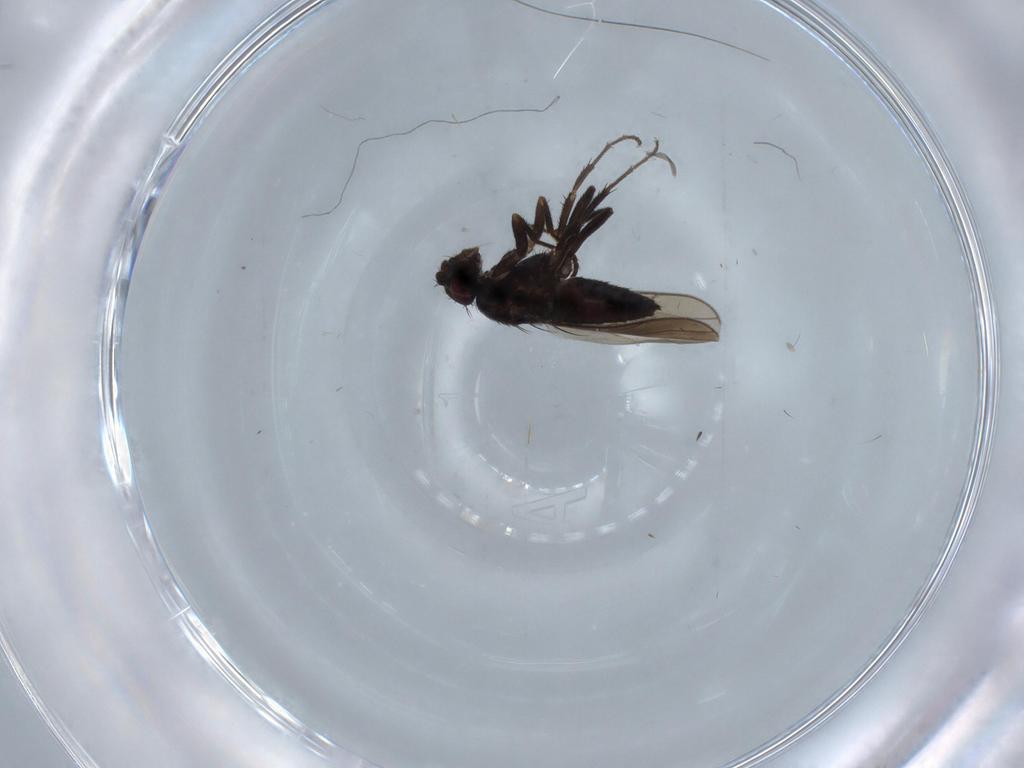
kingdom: Animalia
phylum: Arthropoda
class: Insecta
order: Diptera
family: Sphaeroceridae
